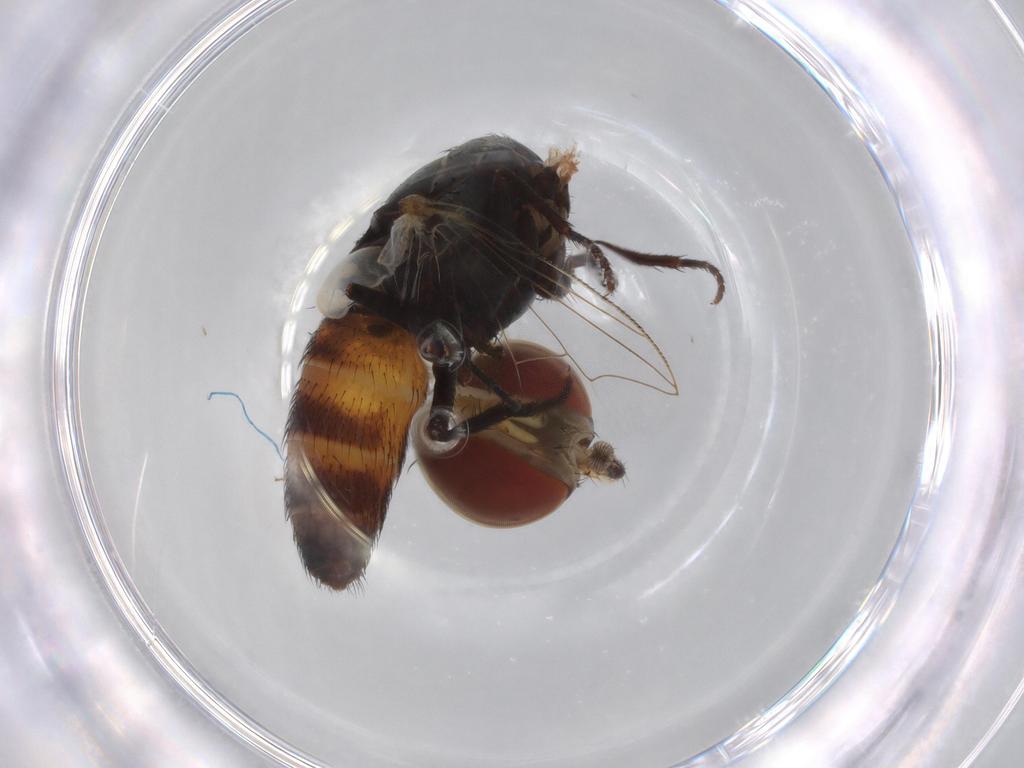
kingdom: Animalia
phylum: Arthropoda
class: Insecta
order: Diptera
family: Sarcophagidae
